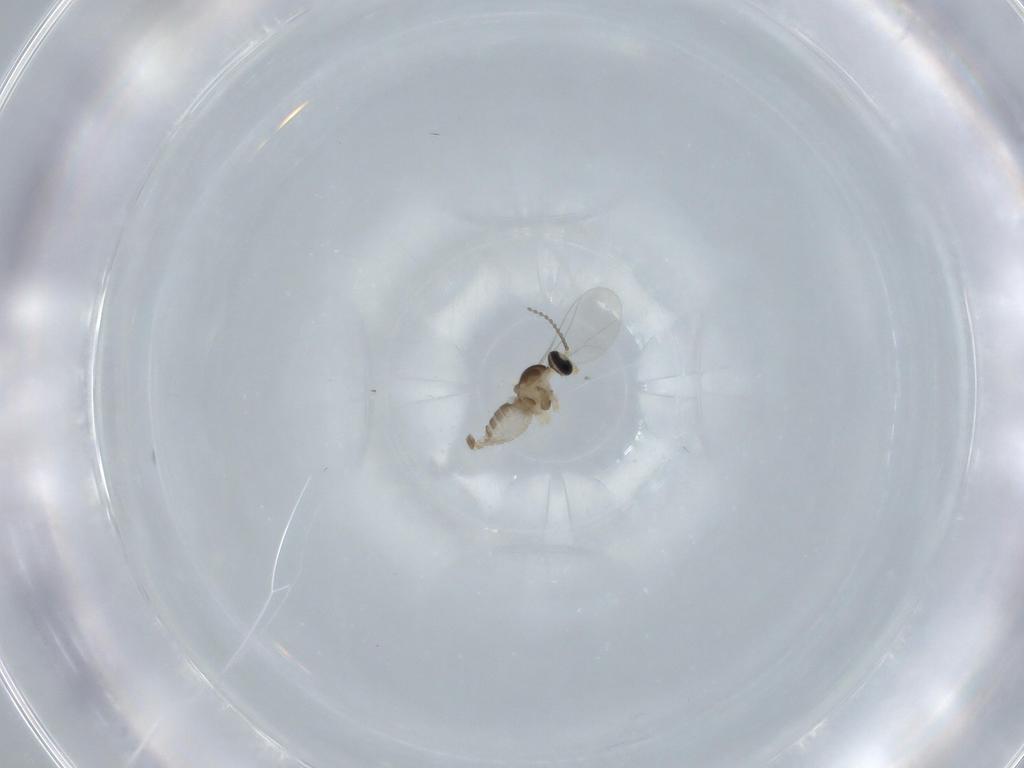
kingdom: Animalia
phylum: Arthropoda
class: Insecta
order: Diptera
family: Cecidomyiidae
